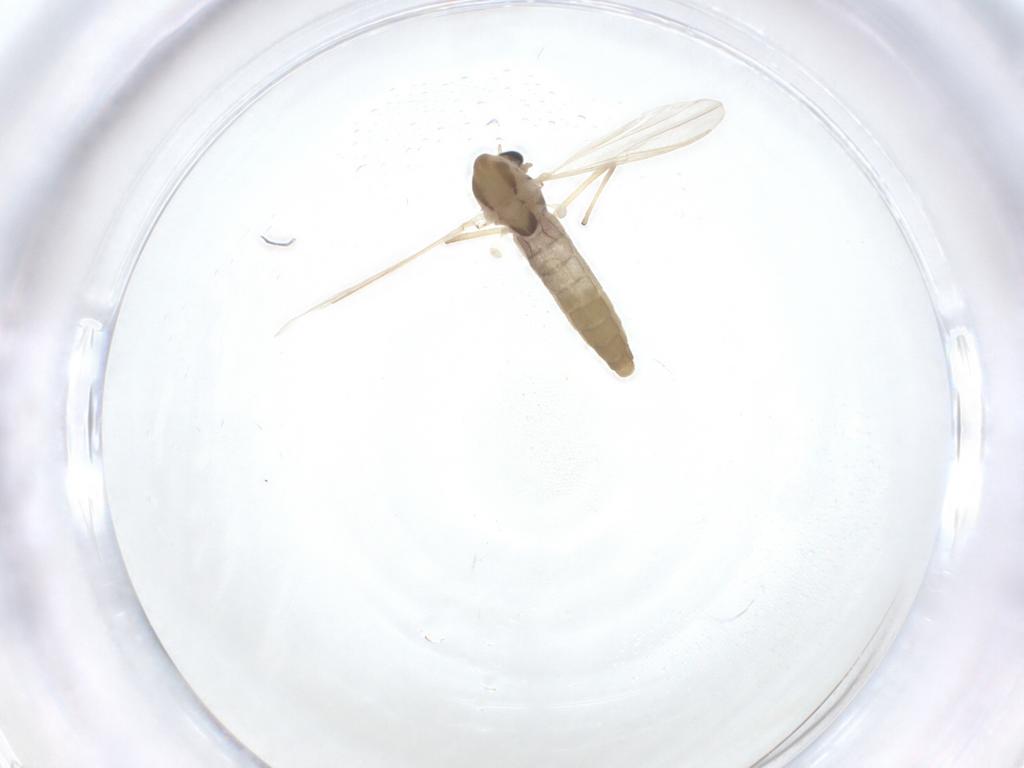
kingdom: Animalia
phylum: Arthropoda
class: Insecta
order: Diptera
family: Chironomidae
